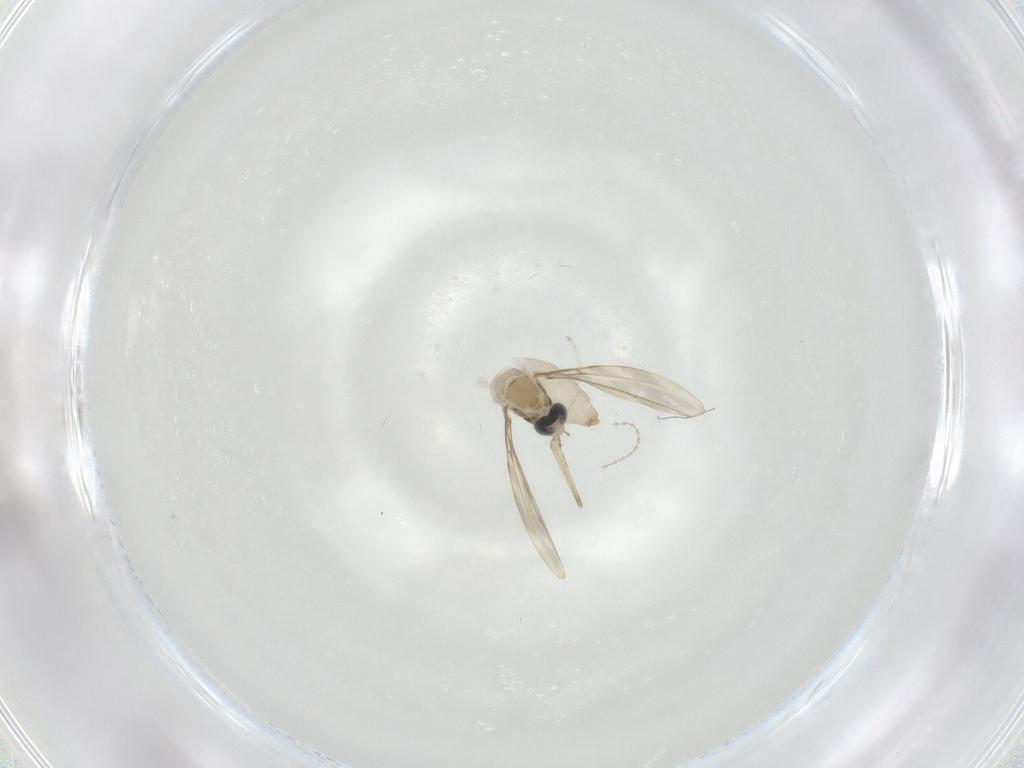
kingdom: Animalia
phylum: Arthropoda
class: Insecta
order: Diptera
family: Cecidomyiidae
